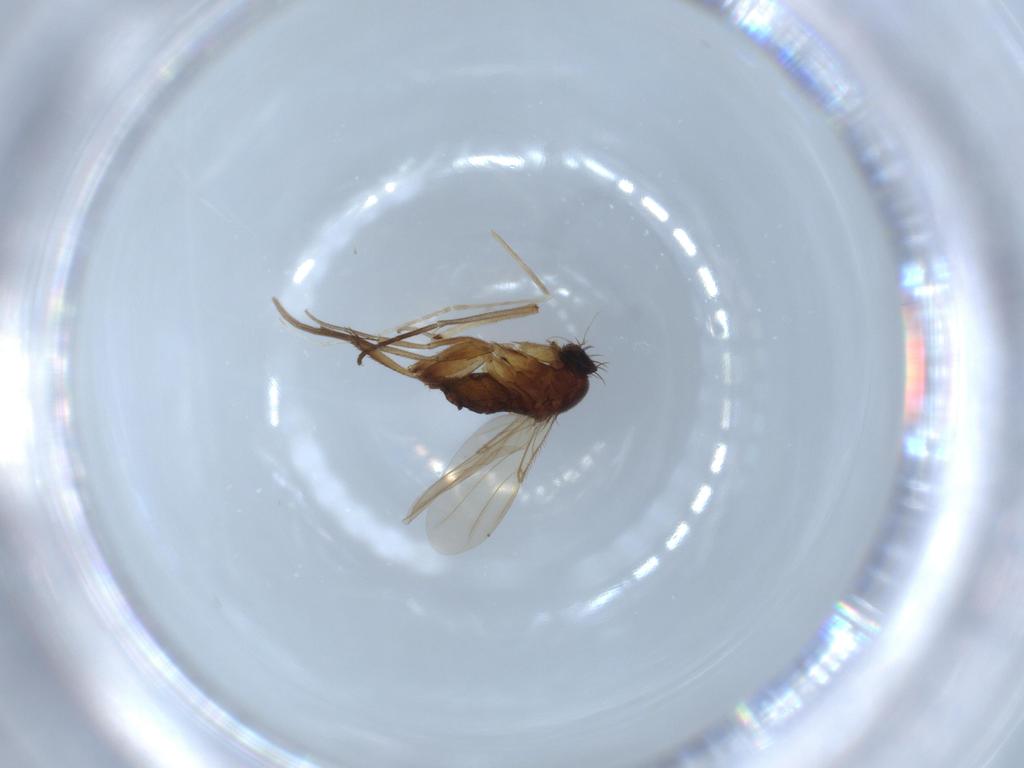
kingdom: Animalia
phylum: Arthropoda
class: Insecta
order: Diptera
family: Phoridae
